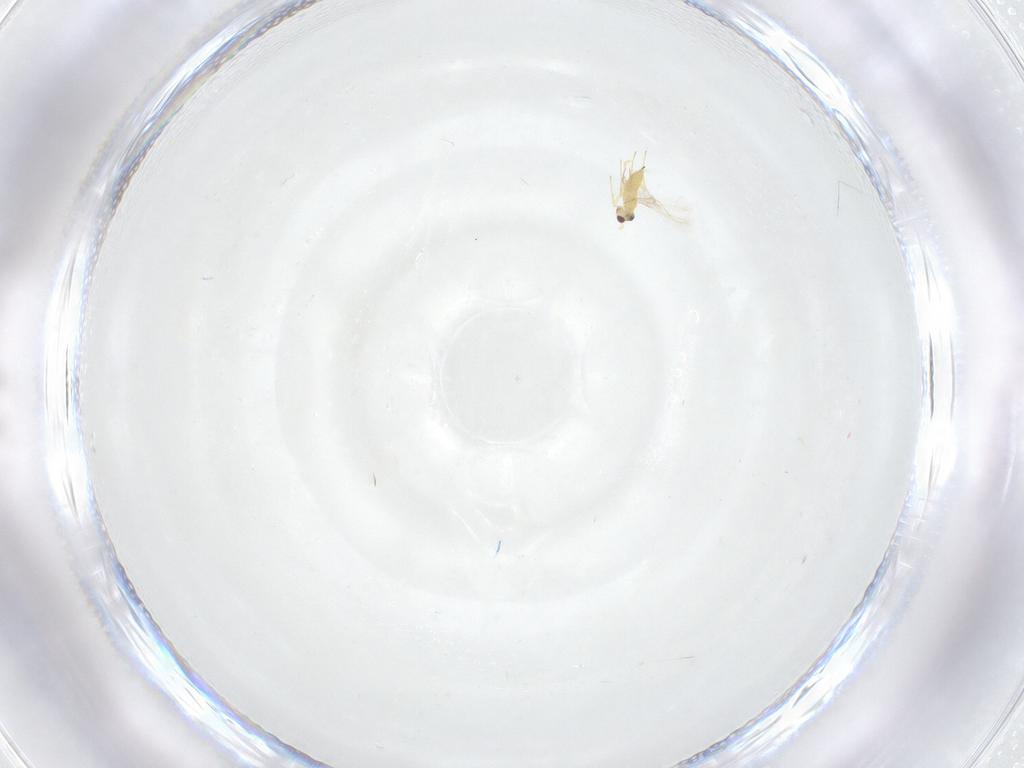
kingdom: Animalia
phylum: Arthropoda
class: Insecta
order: Hymenoptera
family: Mymaridae
